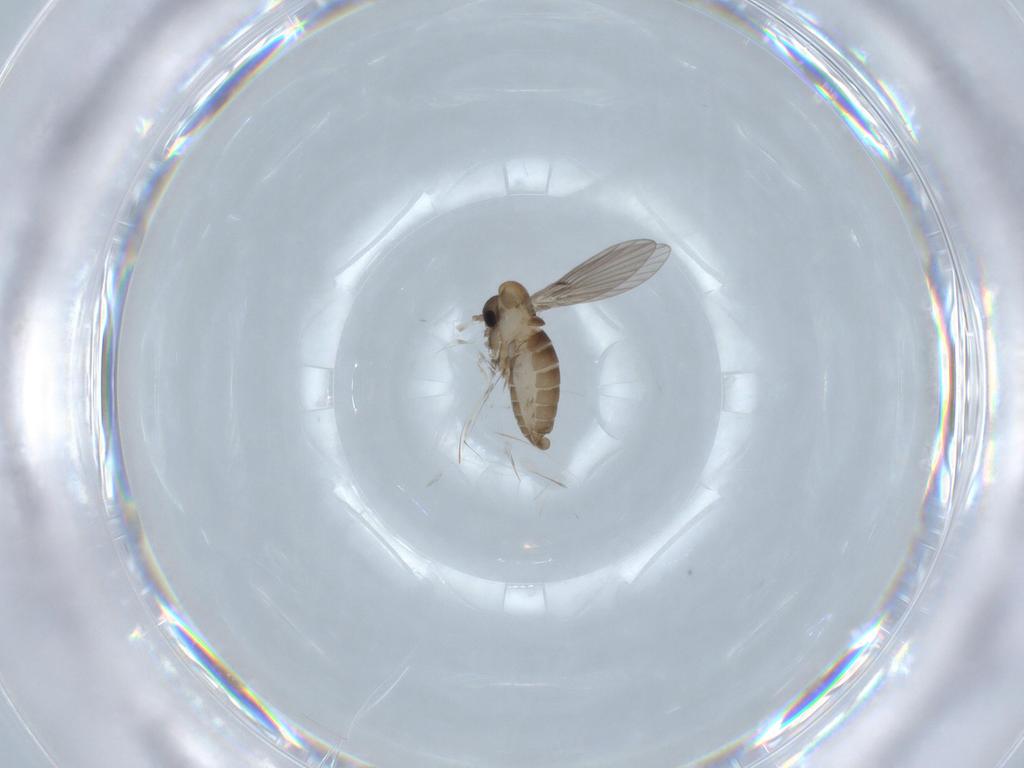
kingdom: Animalia
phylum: Arthropoda
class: Insecta
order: Diptera
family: Psychodidae
